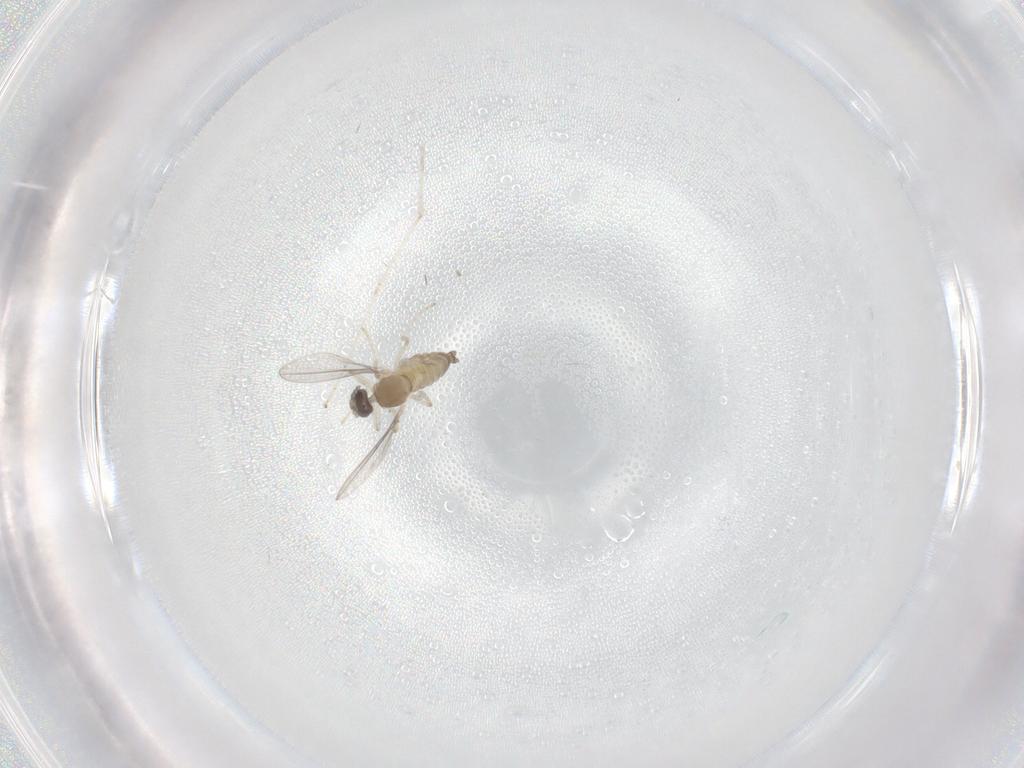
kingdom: Animalia
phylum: Arthropoda
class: Insecta
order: Diptera
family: Cecidomyiidae
